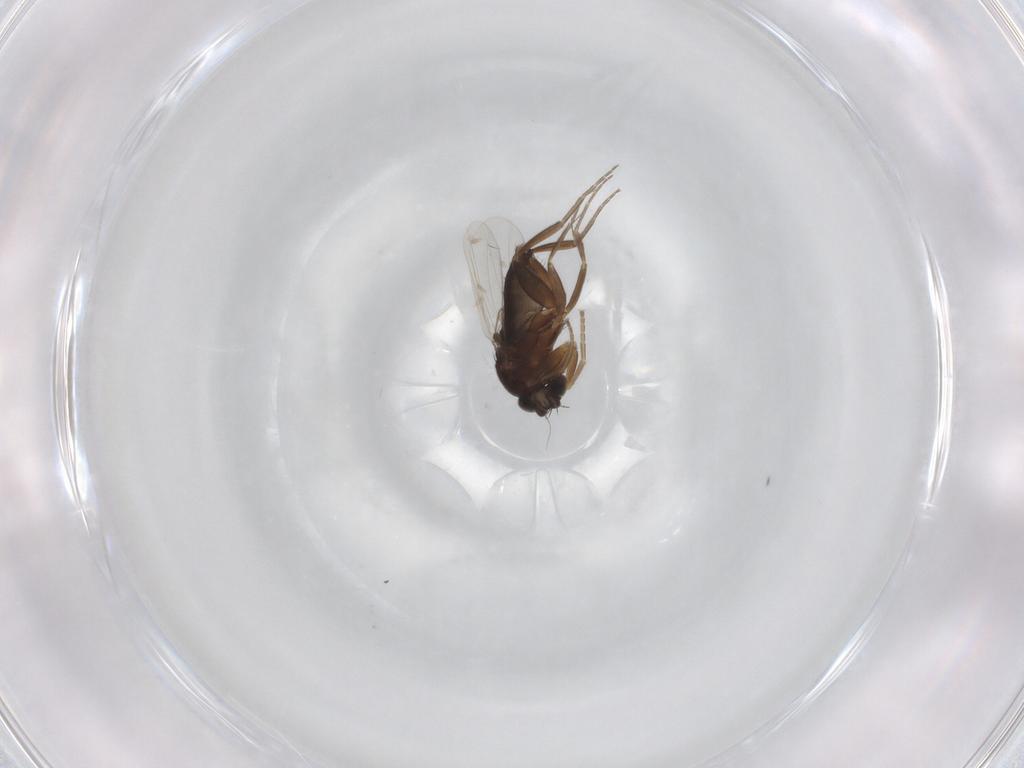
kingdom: Animalia
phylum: Arthropoda
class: Insecta
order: Diptera
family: Phoridae
